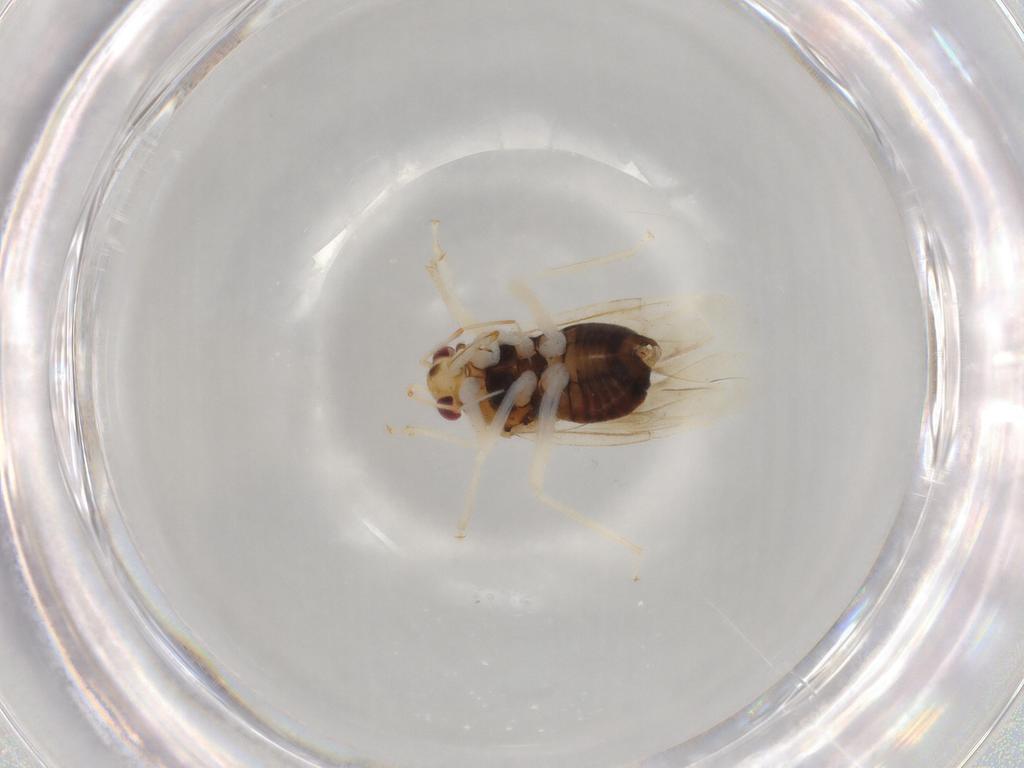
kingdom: Animalia
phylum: Arthropoda
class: Insecta
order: Hemiptera
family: Miridae
